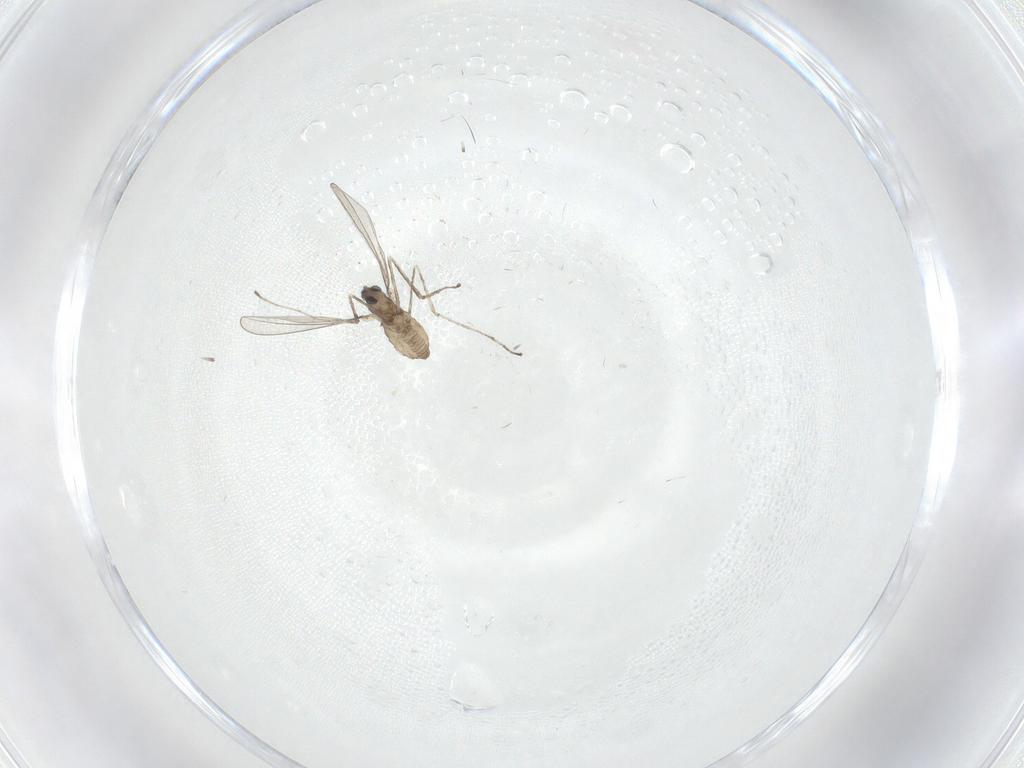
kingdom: Animalia
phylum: Arthropoda
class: Insecta
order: Diptera
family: Cecidomyiidae
